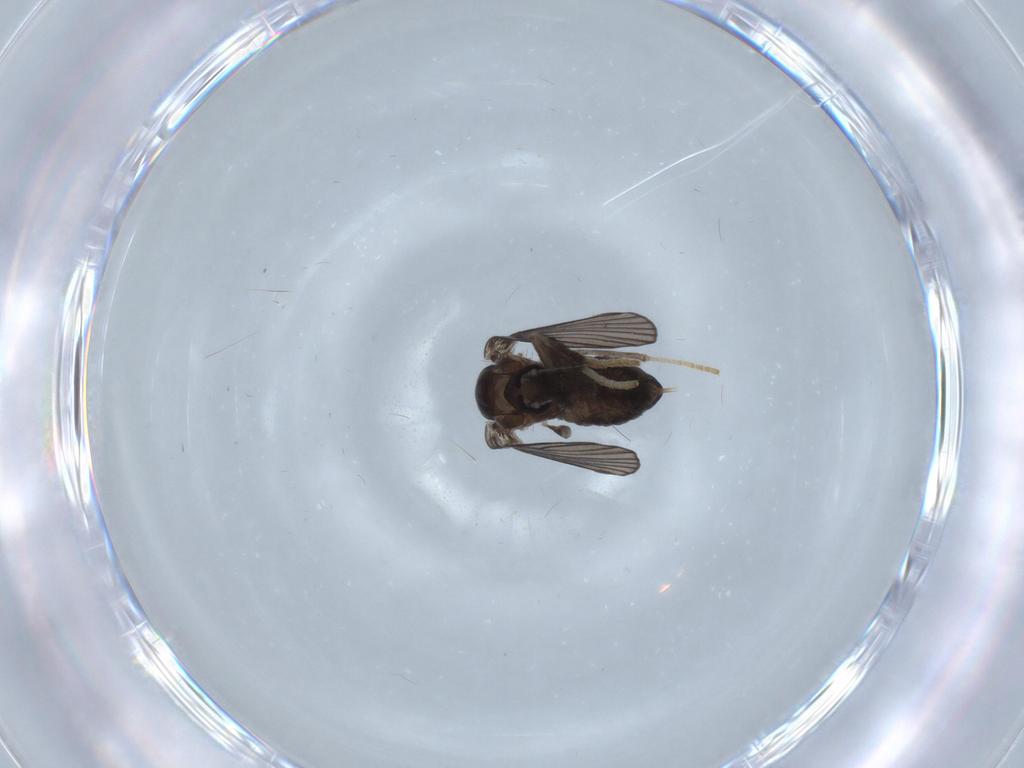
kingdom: Animalia
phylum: Arthropoda
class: Insecta
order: Diptera
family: Psychodidae
